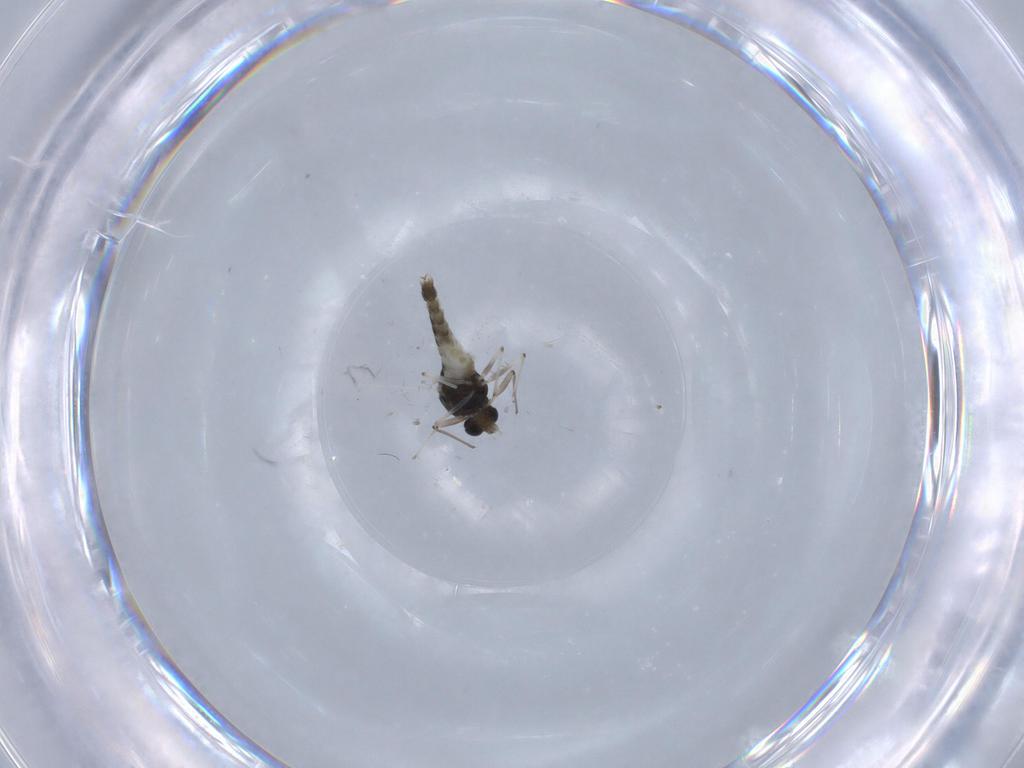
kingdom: Animalia
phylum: Arthropoda
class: Insecta
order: Diptera
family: Chironomidae
